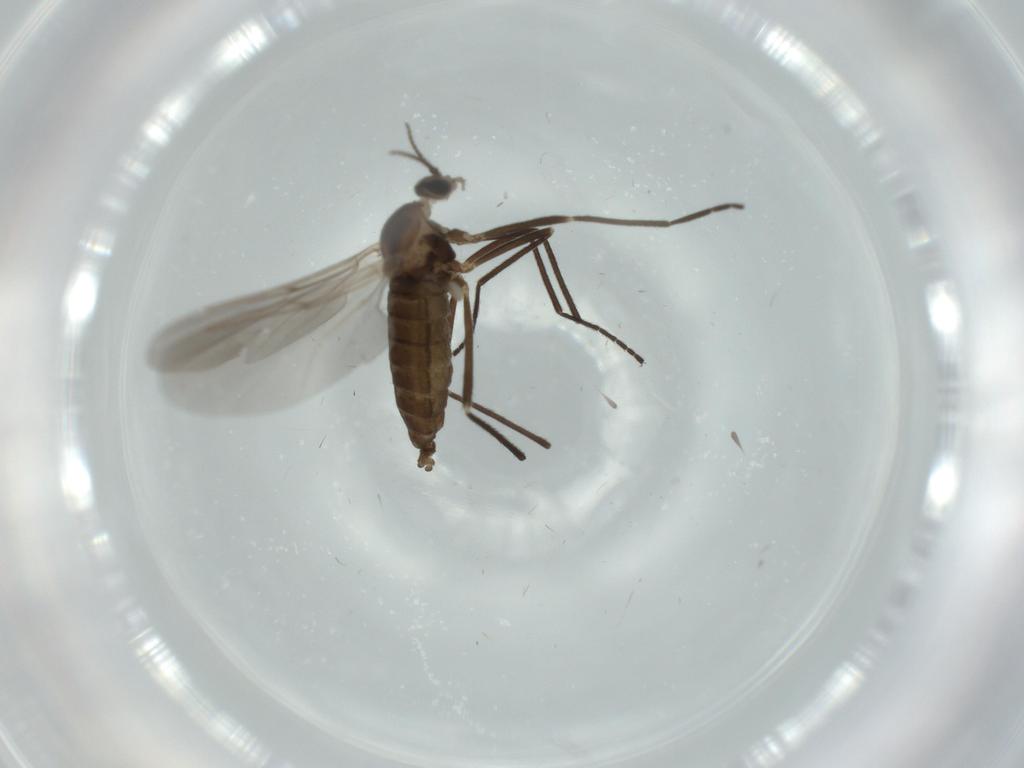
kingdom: Animalia
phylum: Arthropoda
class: Insecta
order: Diptera
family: Cecidomyiidae
